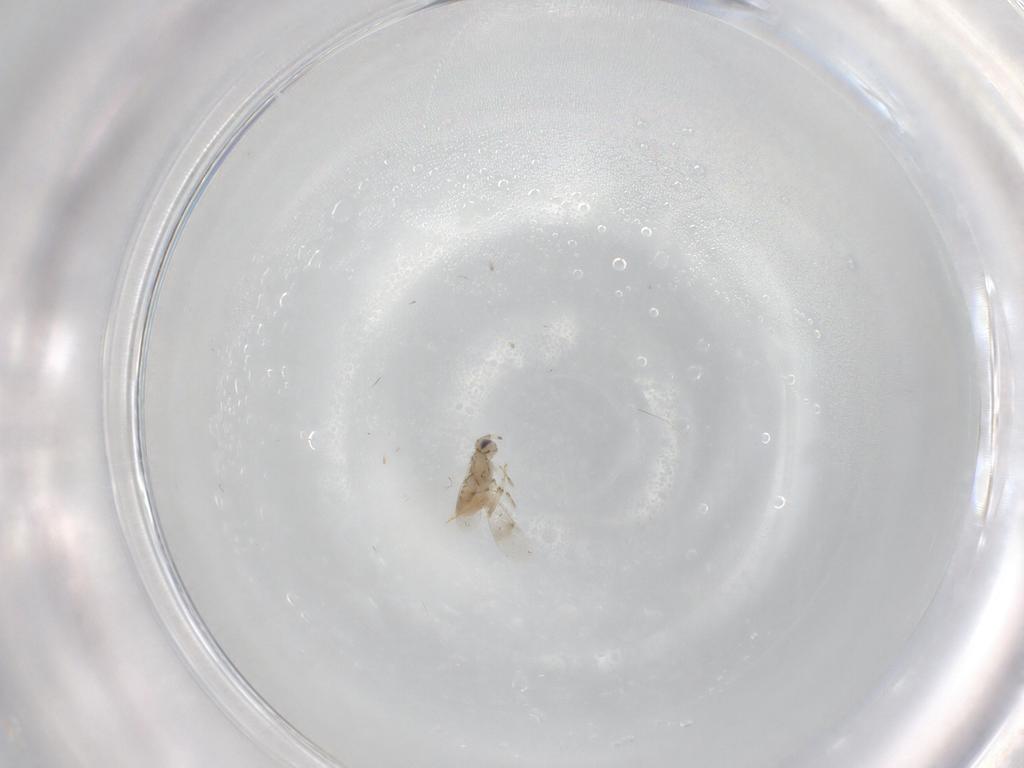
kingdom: Animalia
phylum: Arthropoda
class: Insecta
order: Hymenoptera
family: Aphelinidae
